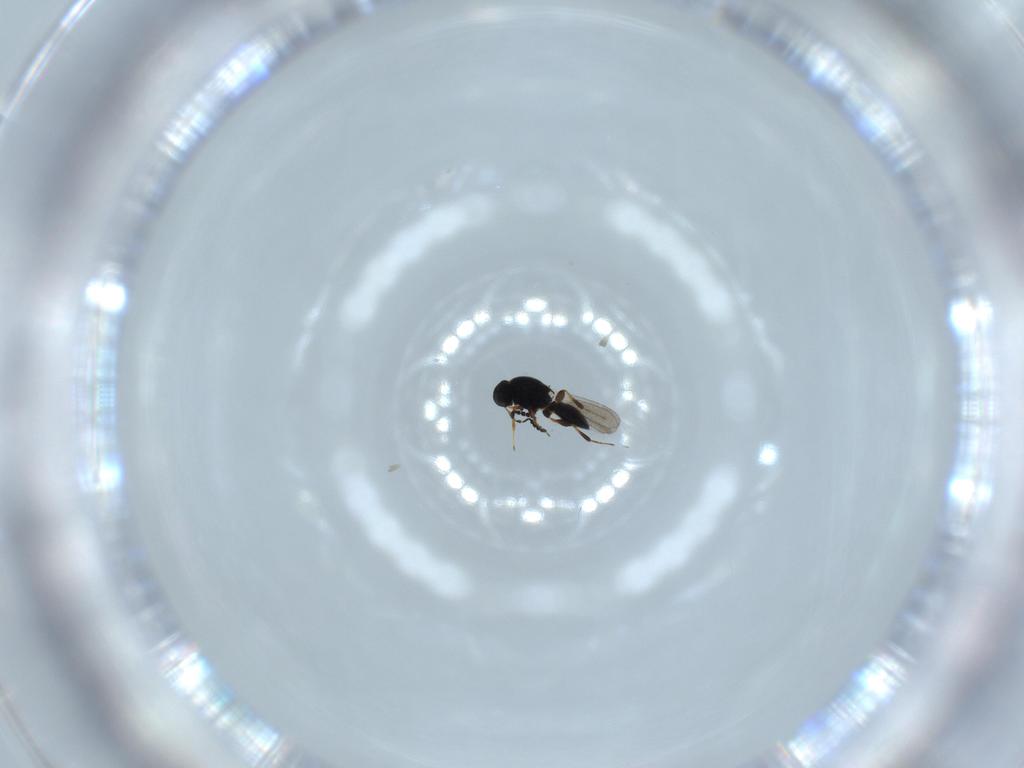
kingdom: Animalia
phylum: Arthropoda
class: Insecta
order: Hymenoptera
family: Platygastridae
